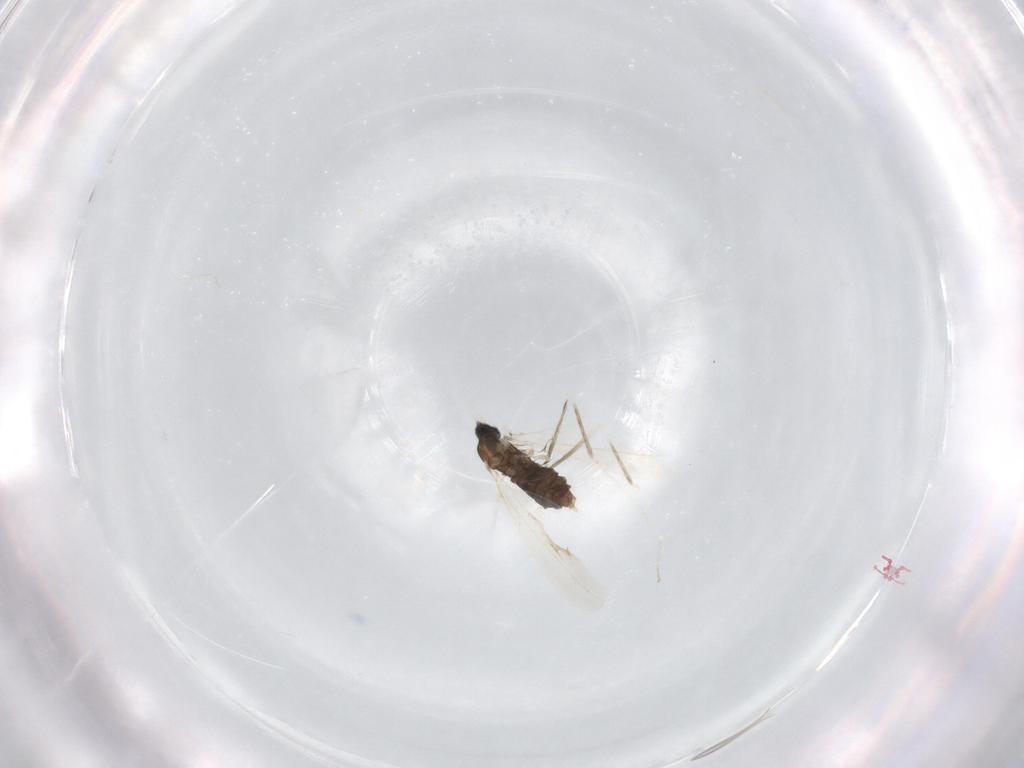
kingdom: Animalia
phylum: Arthropoda
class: Insecta
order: Diptera
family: Cecidomyiidae
